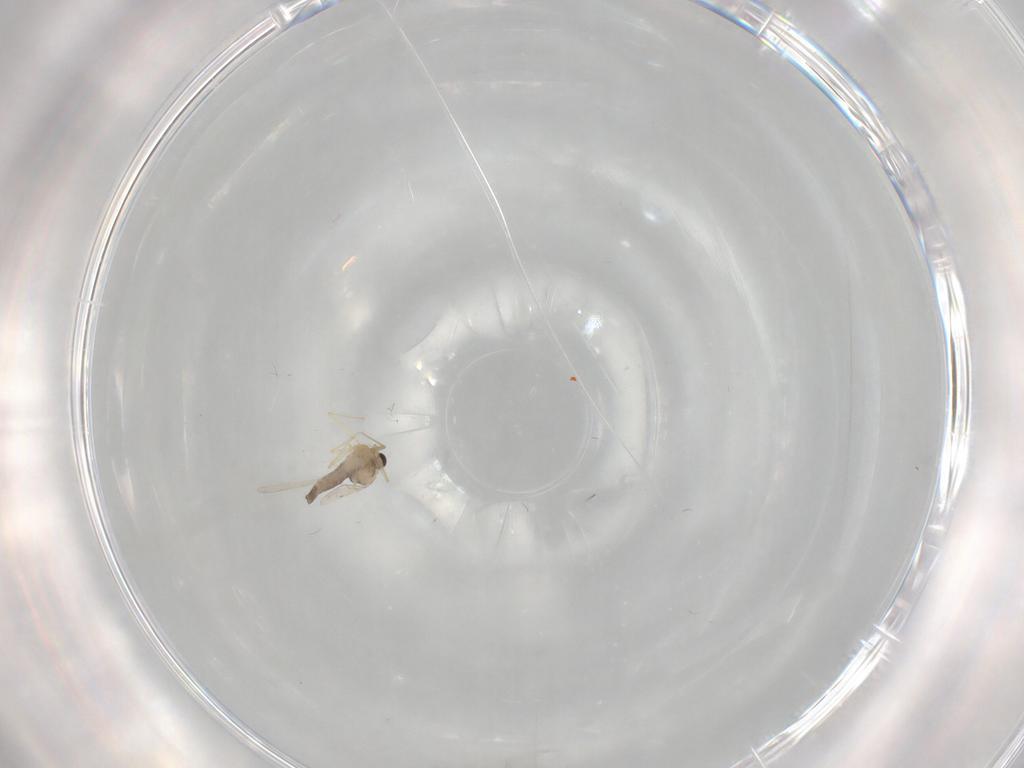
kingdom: Animalia
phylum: Arthropoda
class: Insecta
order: Diptera
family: Chironomidae
